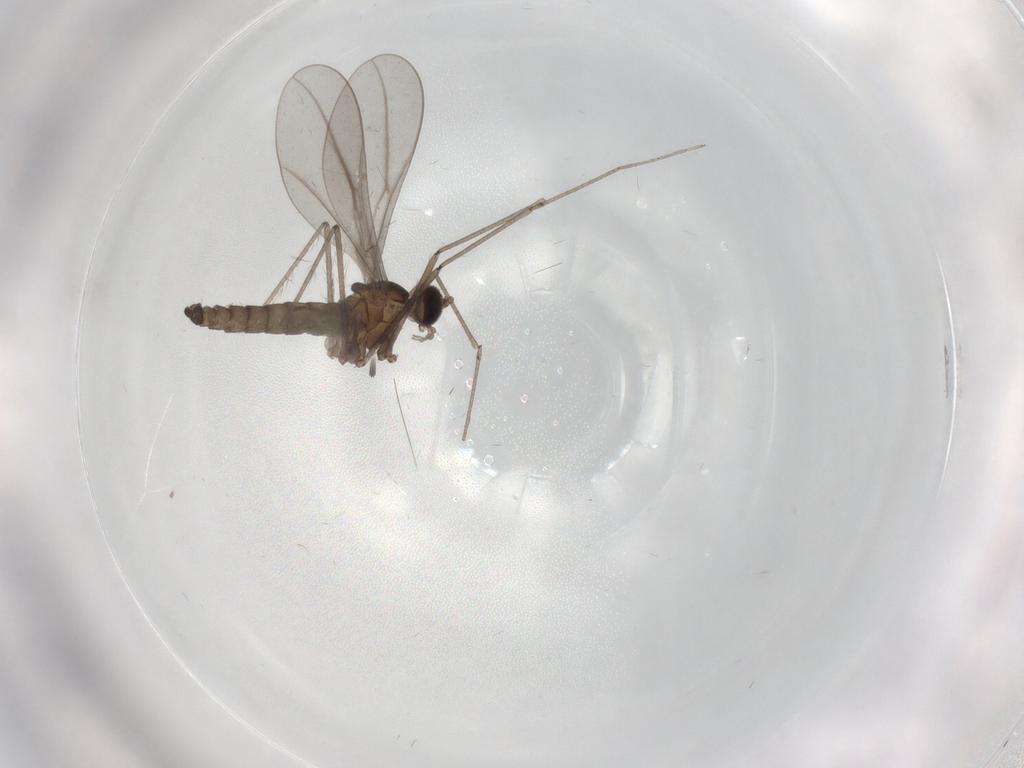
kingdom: Animalia
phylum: Arthropoda
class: Insecta
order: Diptera
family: Cecidomyiidae
